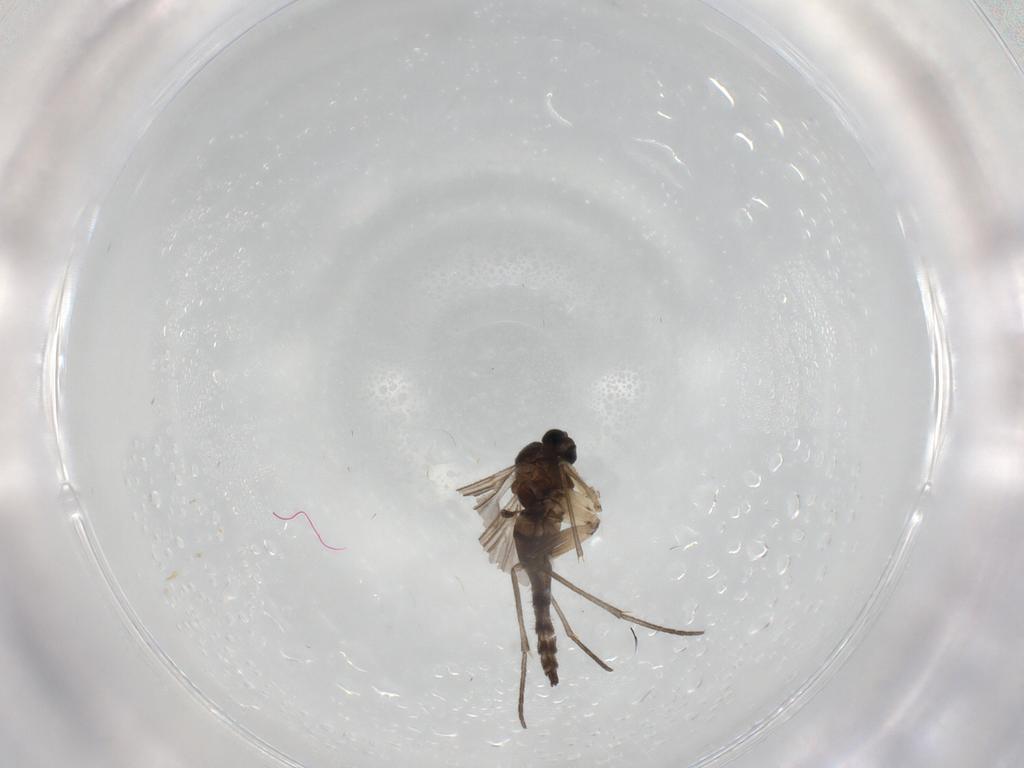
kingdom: Animalia
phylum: Arthropoda
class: Insecta
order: Diptera
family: Sciaridae
